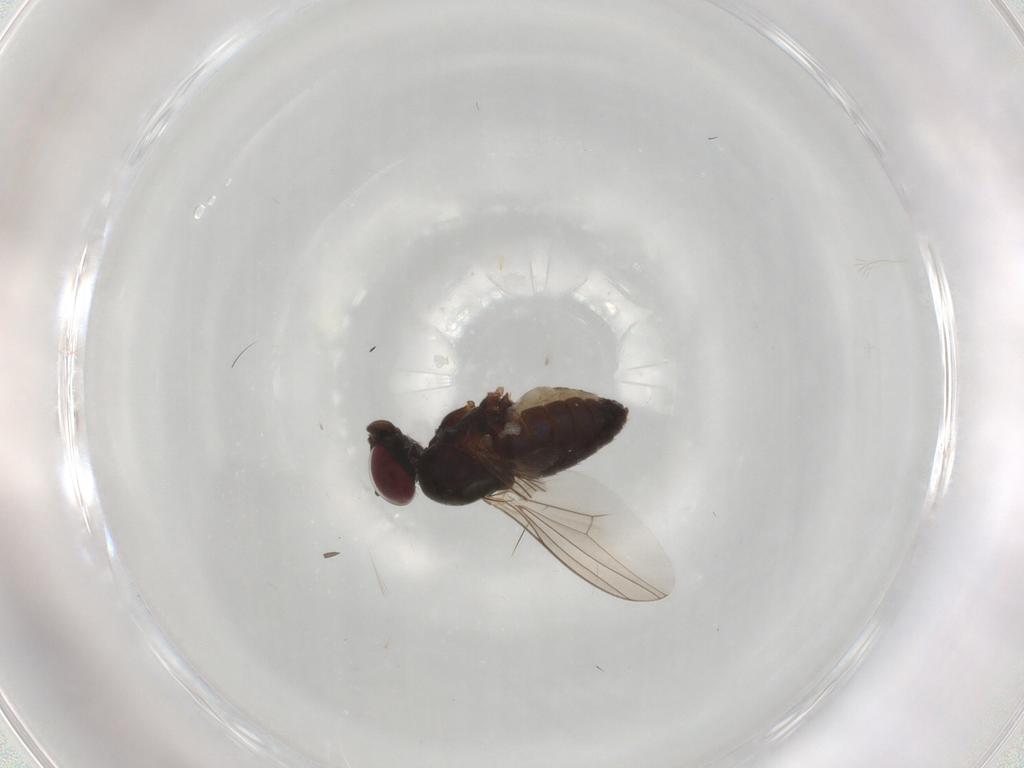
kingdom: Animalia
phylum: Arthropoda
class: Insecta
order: Diptera
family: Dolichopodidae
